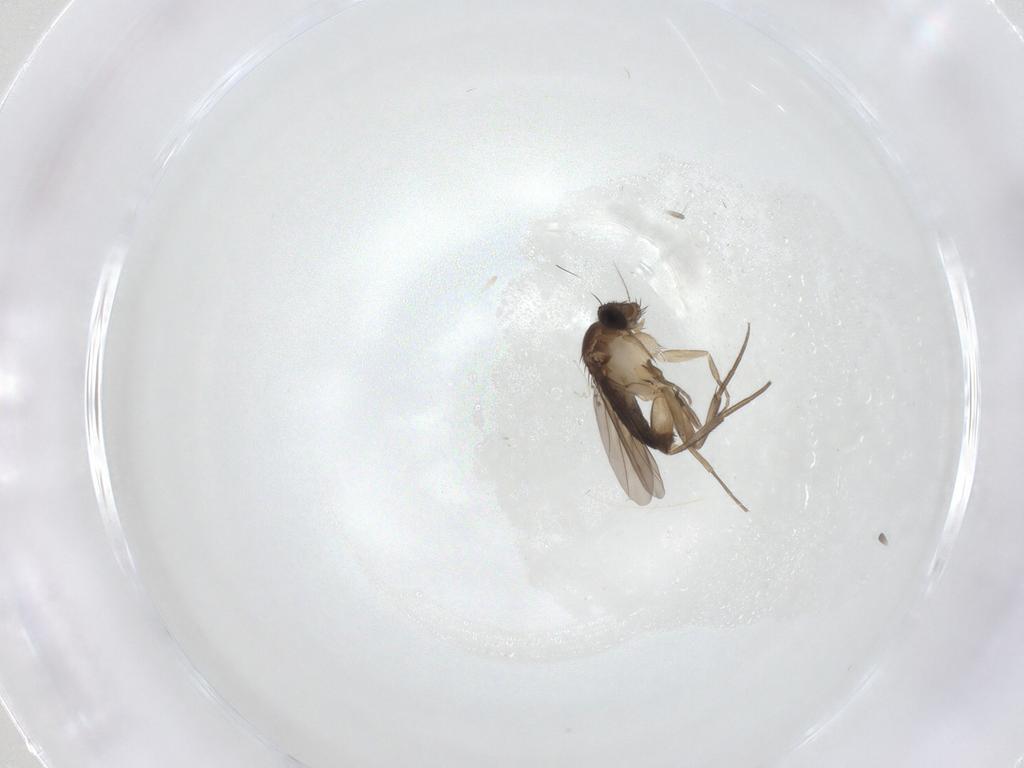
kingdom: Animalia
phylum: Arthropoda
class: Insecta
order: Diptera
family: Phoridae
